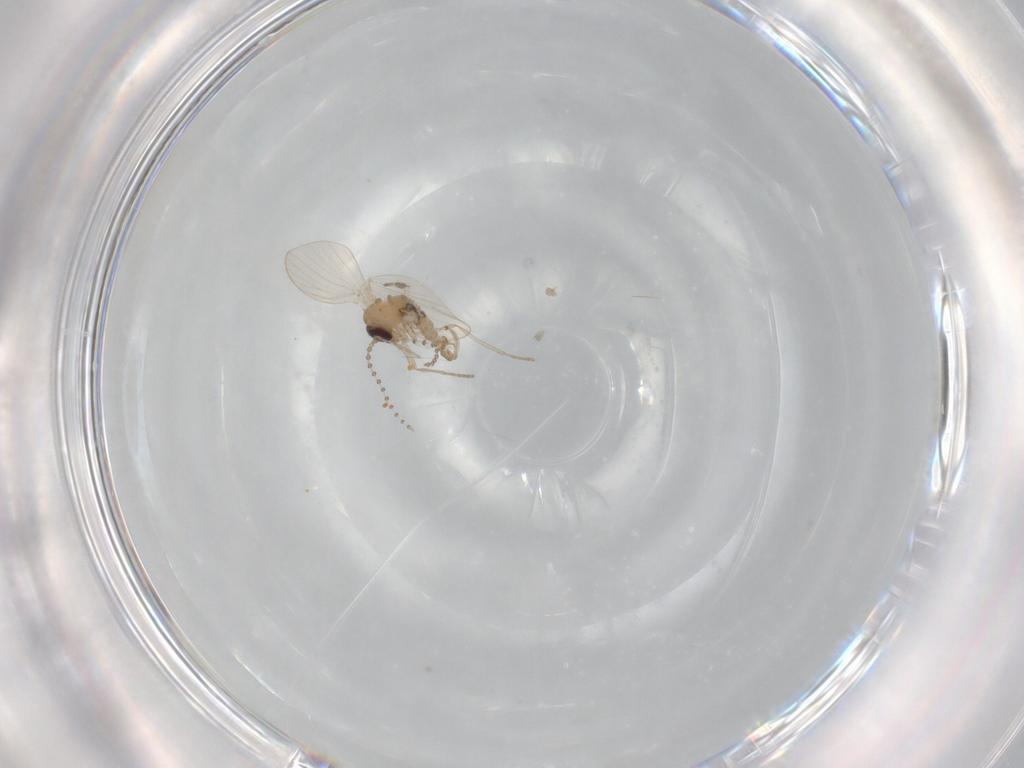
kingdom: Animalia
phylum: Arthropoda
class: Insecta
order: Diptera
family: Psychodidae
